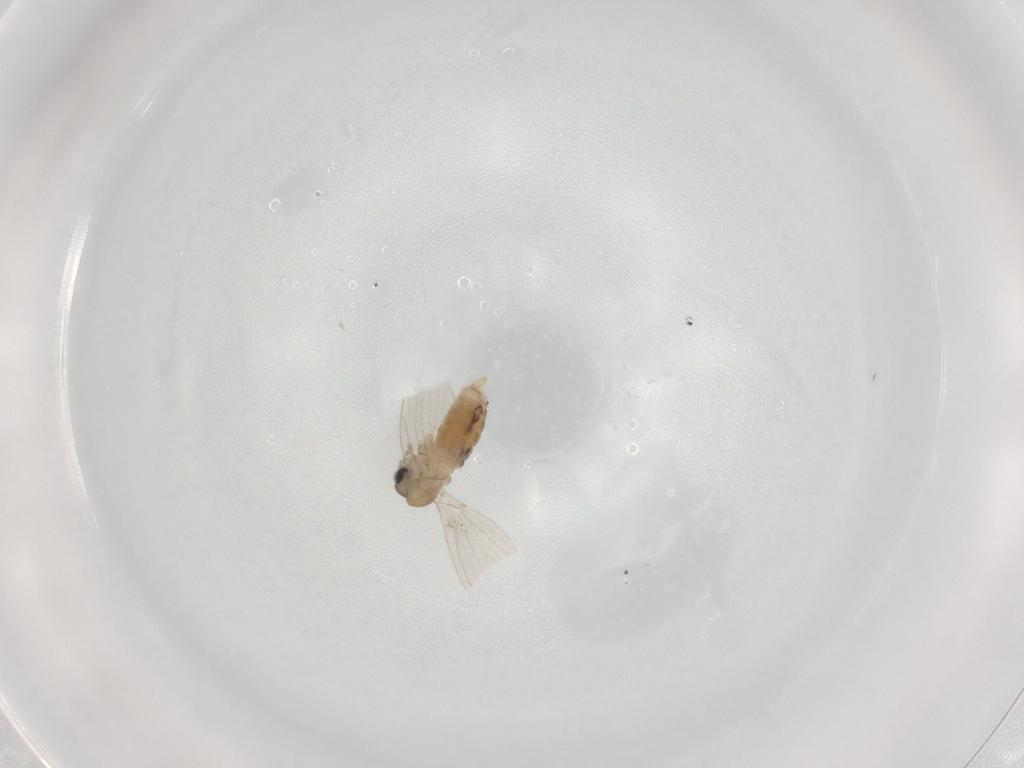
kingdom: Animalia
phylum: Arthropoda
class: Insecta
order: Diptera
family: Psychodidae
